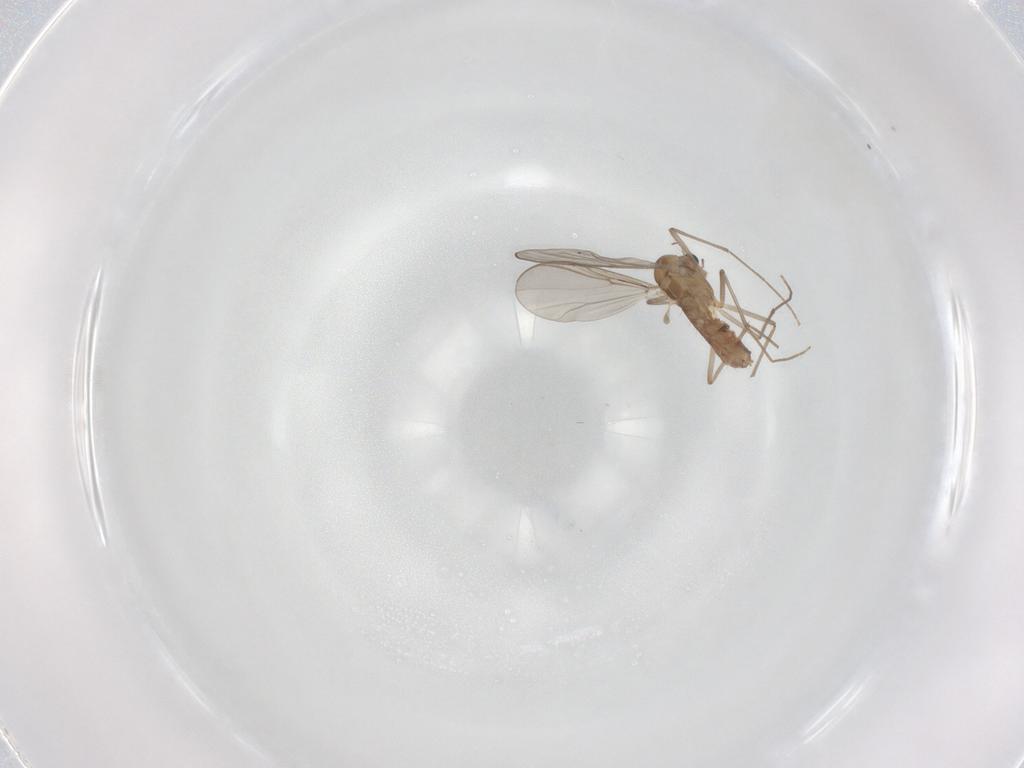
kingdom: Animalia
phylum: Arthropoda
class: Insecta
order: Diptera
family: Chironomidae
